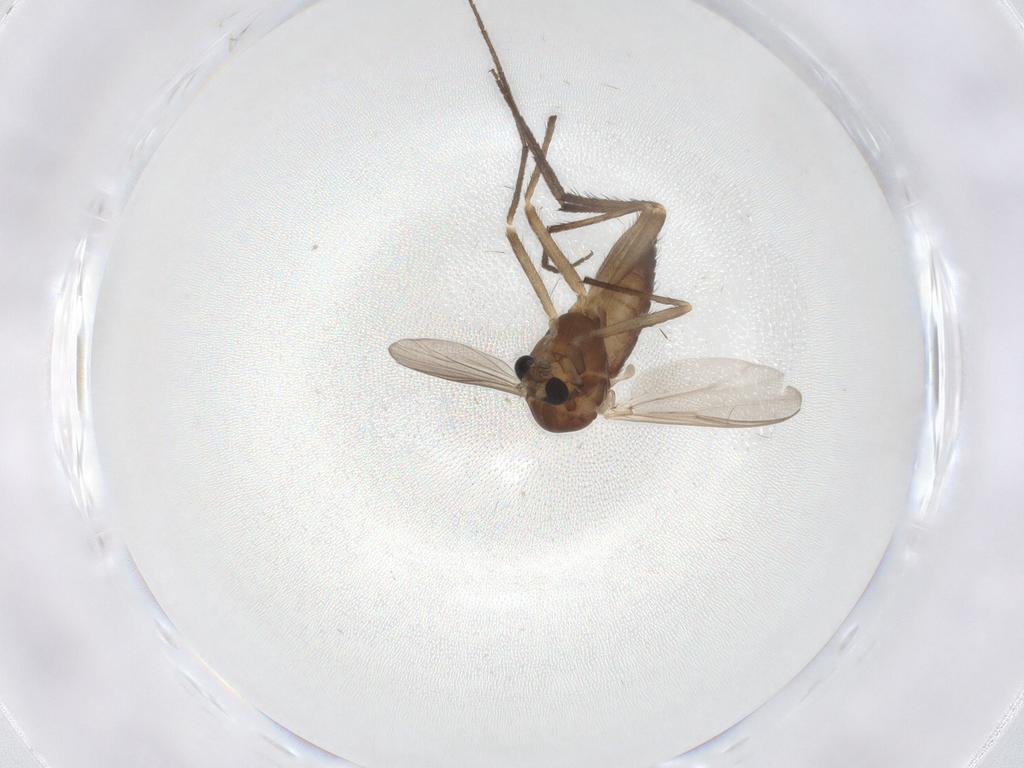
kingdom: Animalia
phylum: Arthropoda
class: Insecta
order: Diptera
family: Chironomidae
